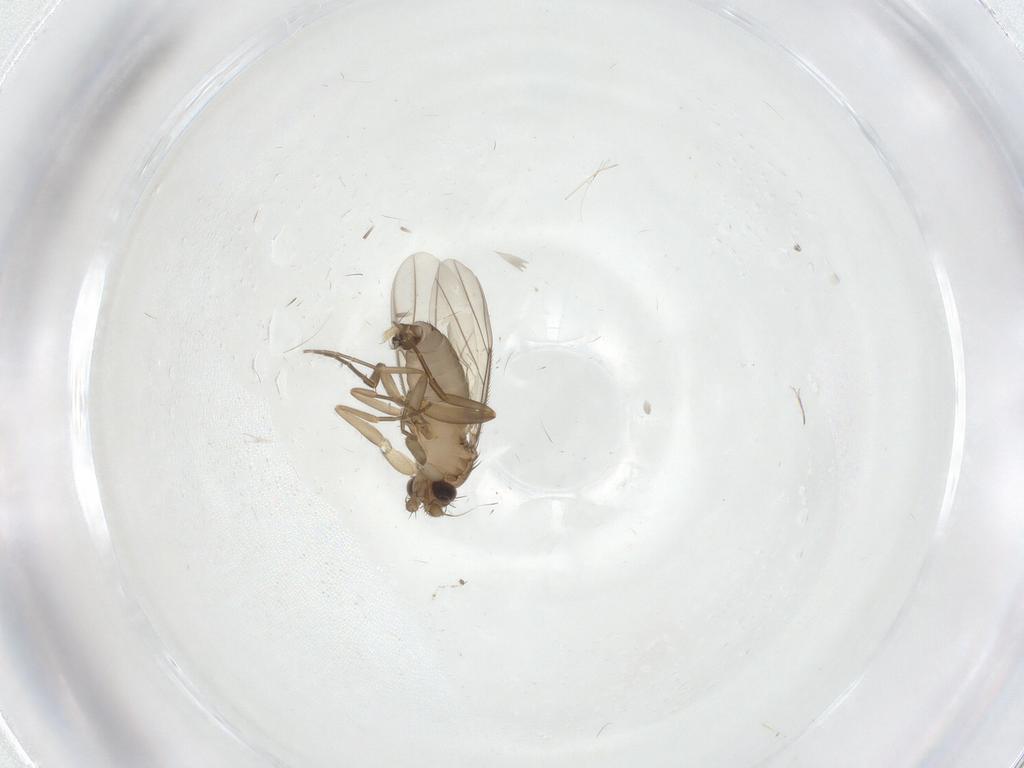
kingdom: Animalia
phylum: Arthropoda
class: Insecta
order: Diptera
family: Phoridae
